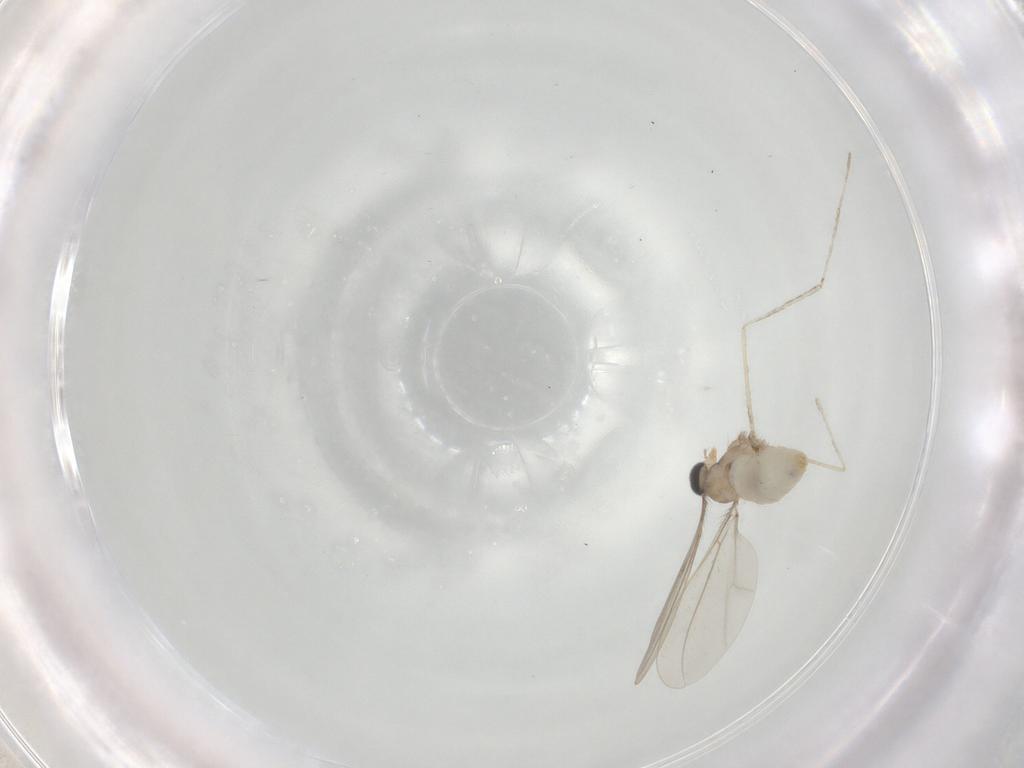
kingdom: Animalia
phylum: Arthropoda
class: Insecta
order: Diptera
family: Cecidomyiidae
